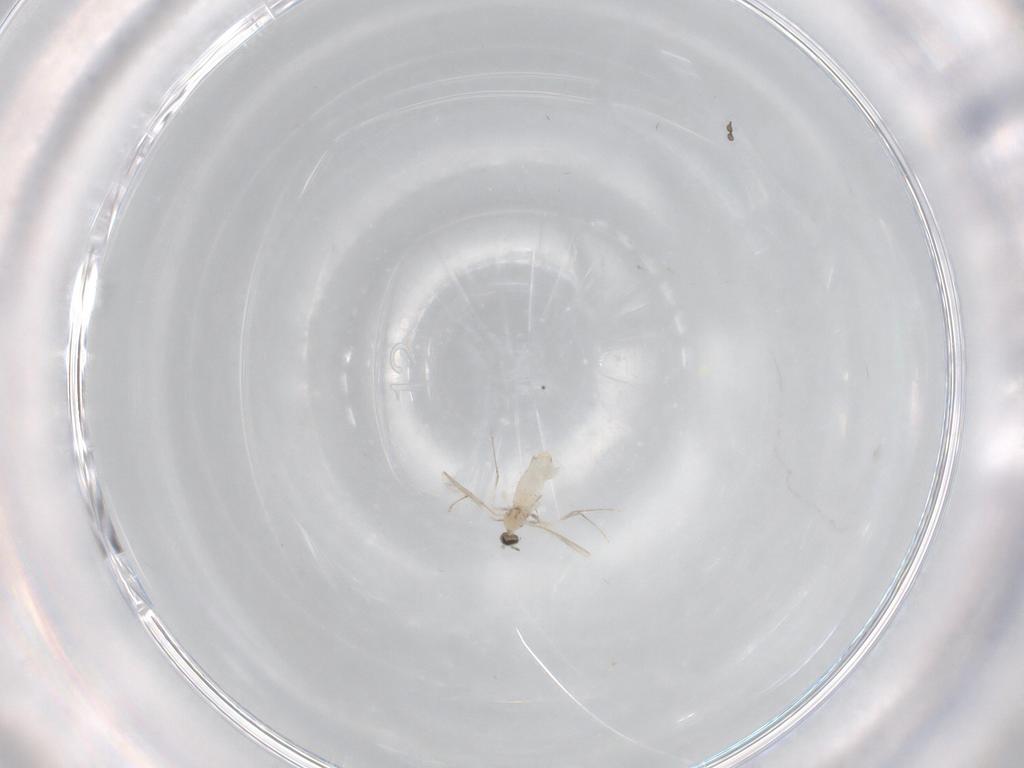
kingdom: Animalia
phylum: Arthropoda
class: Insecta
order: Diptera
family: Cecidomyiidae
